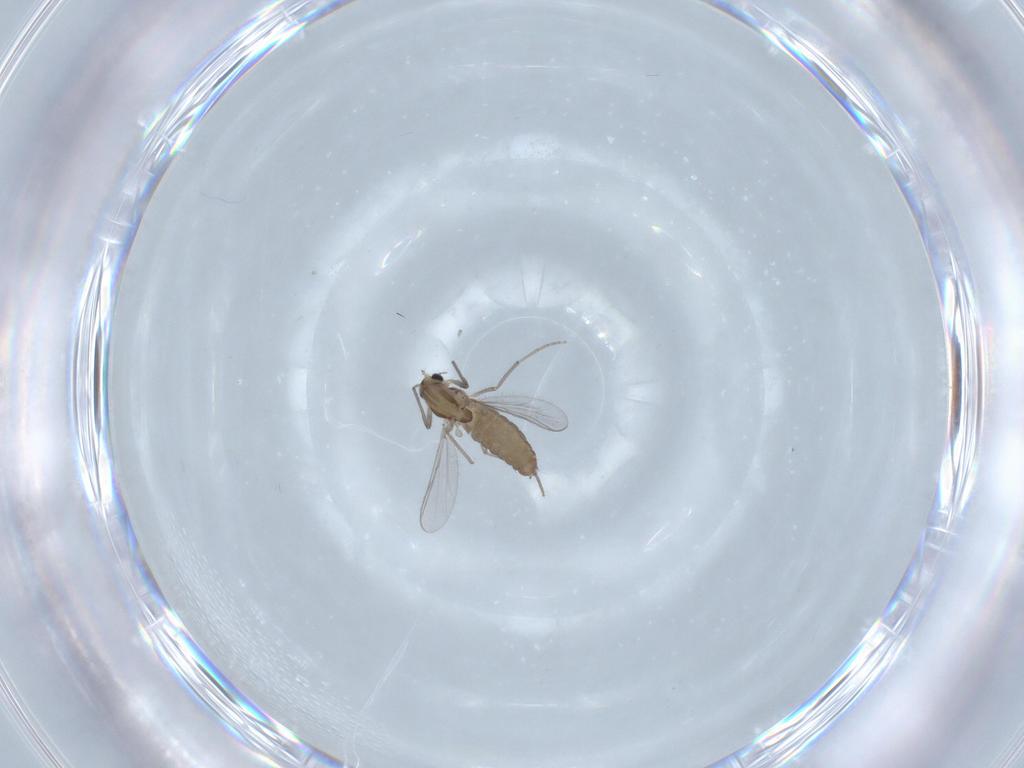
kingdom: Animalia
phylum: Arthropoda
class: Insecta
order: Diptera
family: Chironomidae
